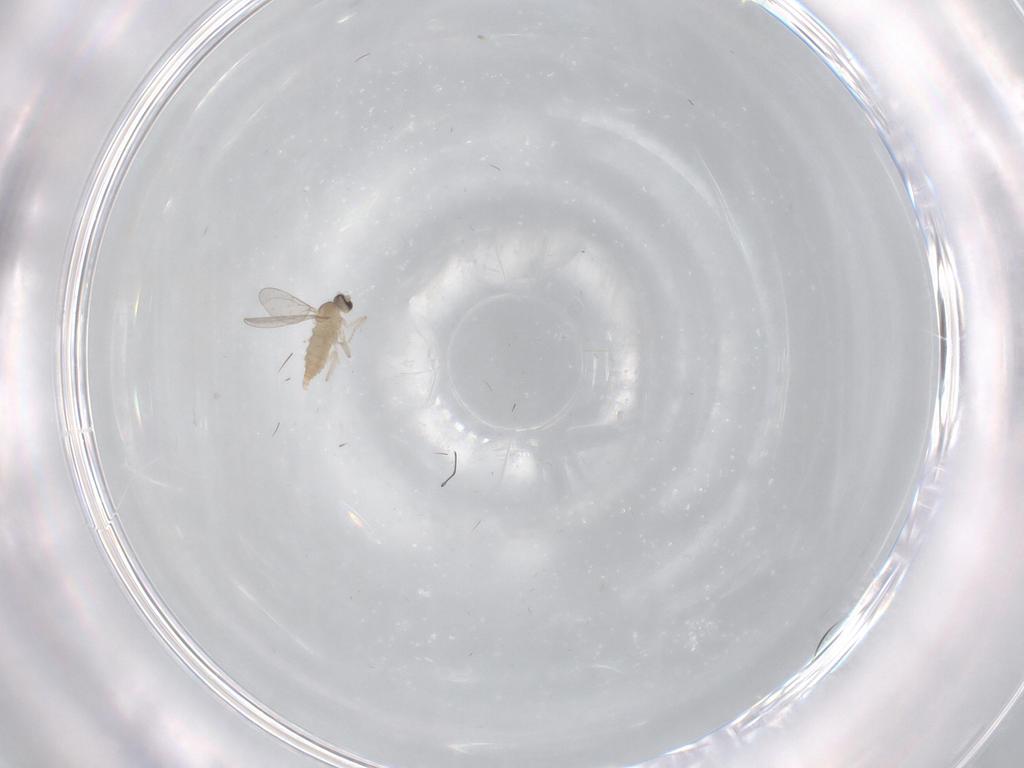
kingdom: Animalia
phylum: Arthropoda
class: Insecta
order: Diptera
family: Cecidomyiidae
